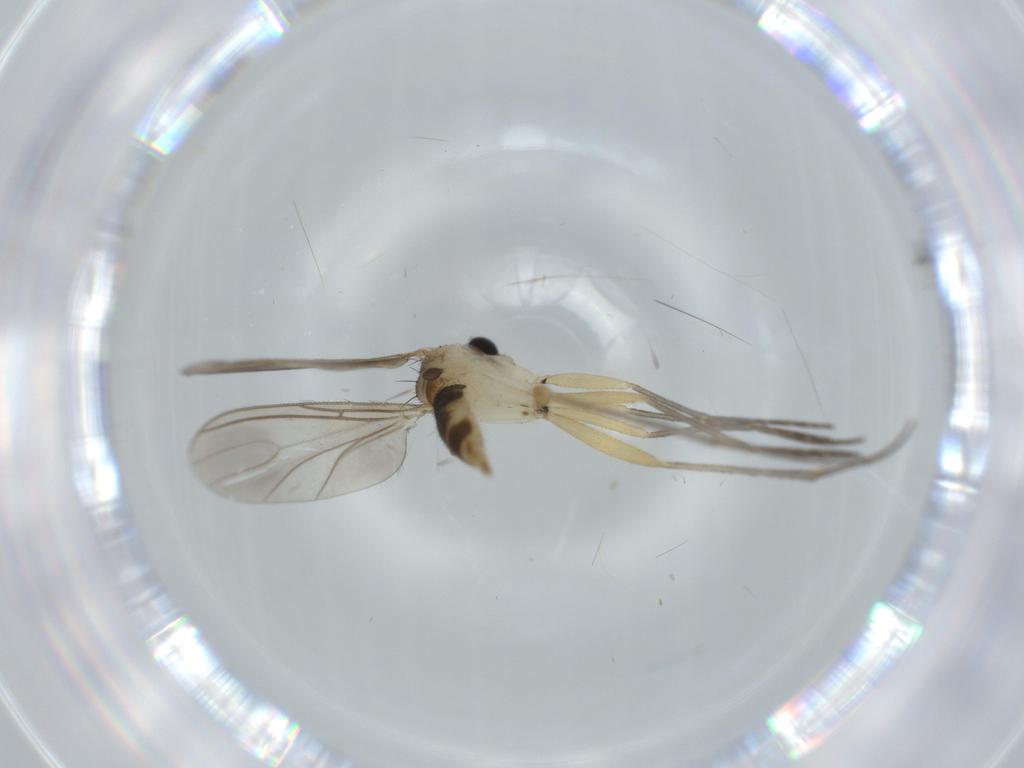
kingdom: Animalia
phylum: Arthropoda
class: Insecta
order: Diptera
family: Sciaridae
